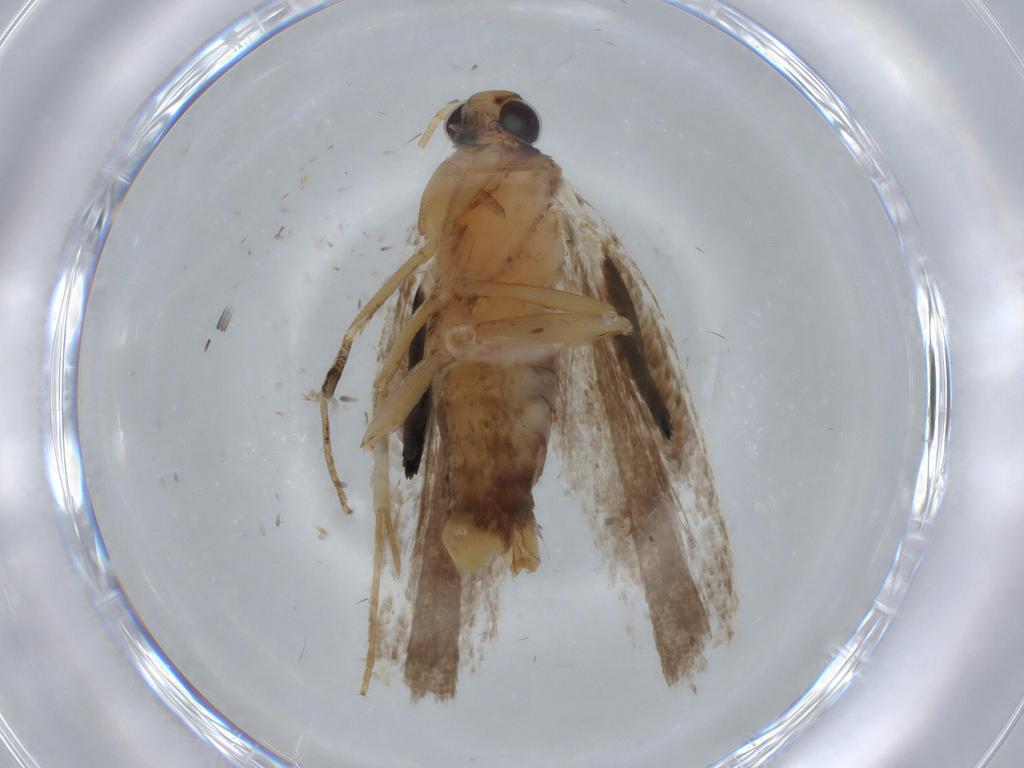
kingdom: Animalia
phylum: Arthropoda
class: Insecta
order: Lepidoptera
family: Gelechiidae
